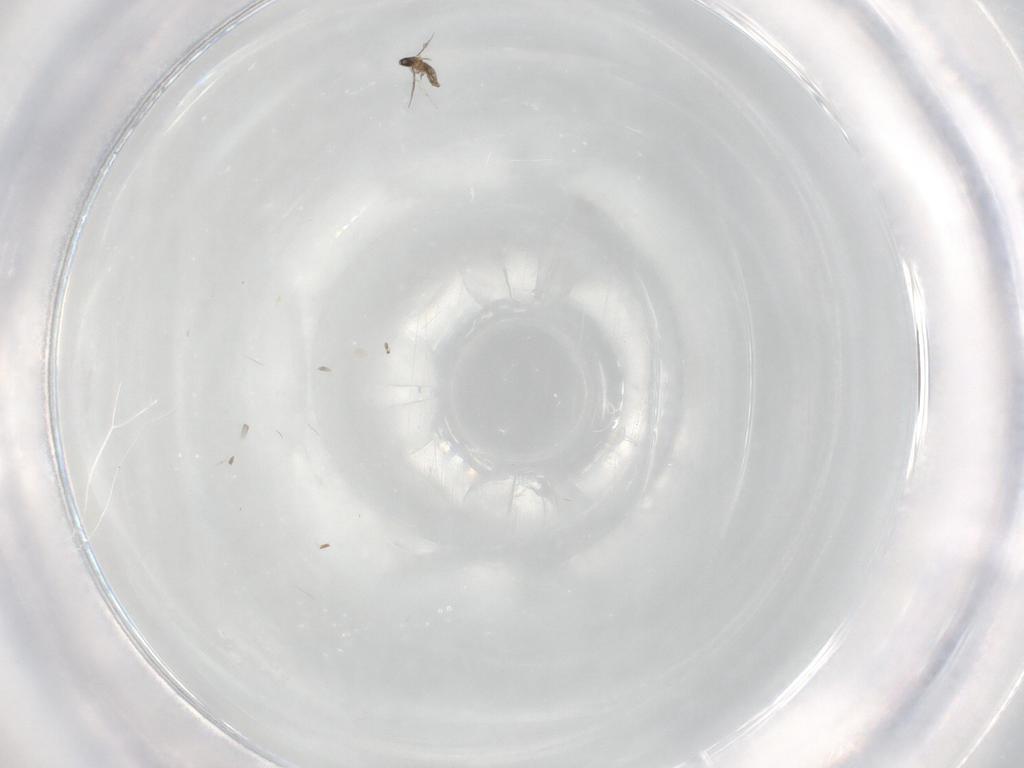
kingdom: Animalia
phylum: Arthropoda
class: Insecta
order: Diptera
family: Cecidomyiidae
